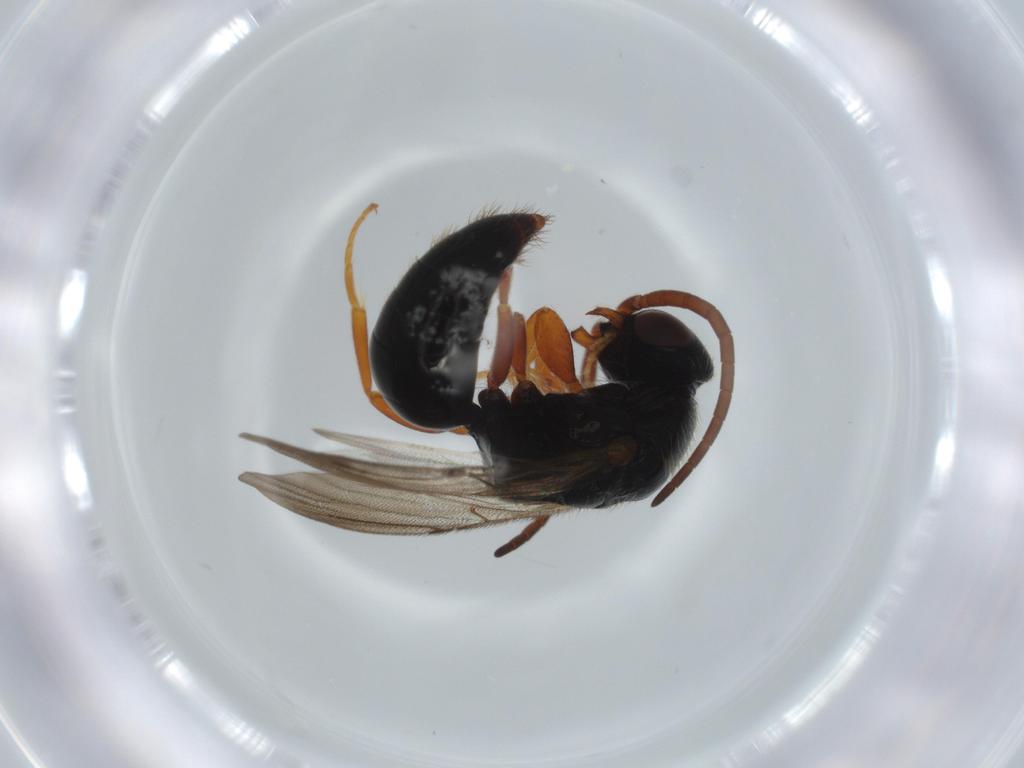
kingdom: Animalia
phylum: Arthropoda
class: Insecta
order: Hymenoptera
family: Bethylidae
